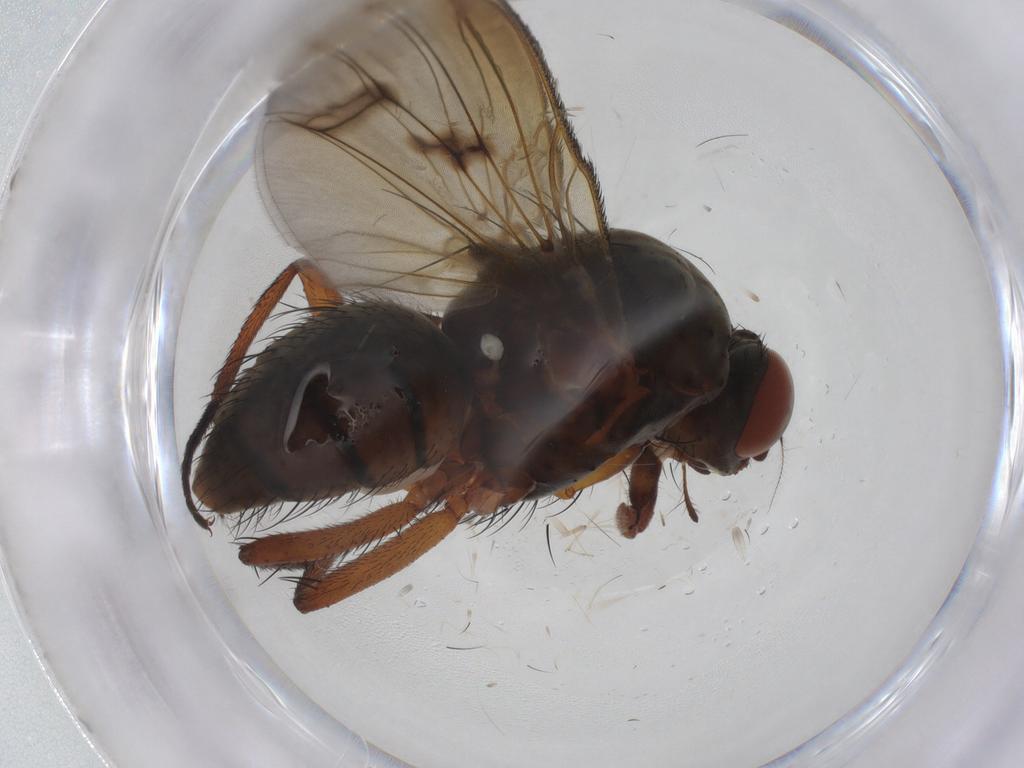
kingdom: Animalia
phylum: Arthropoda
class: Insecta
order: Diptera
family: Anthomyiidae
